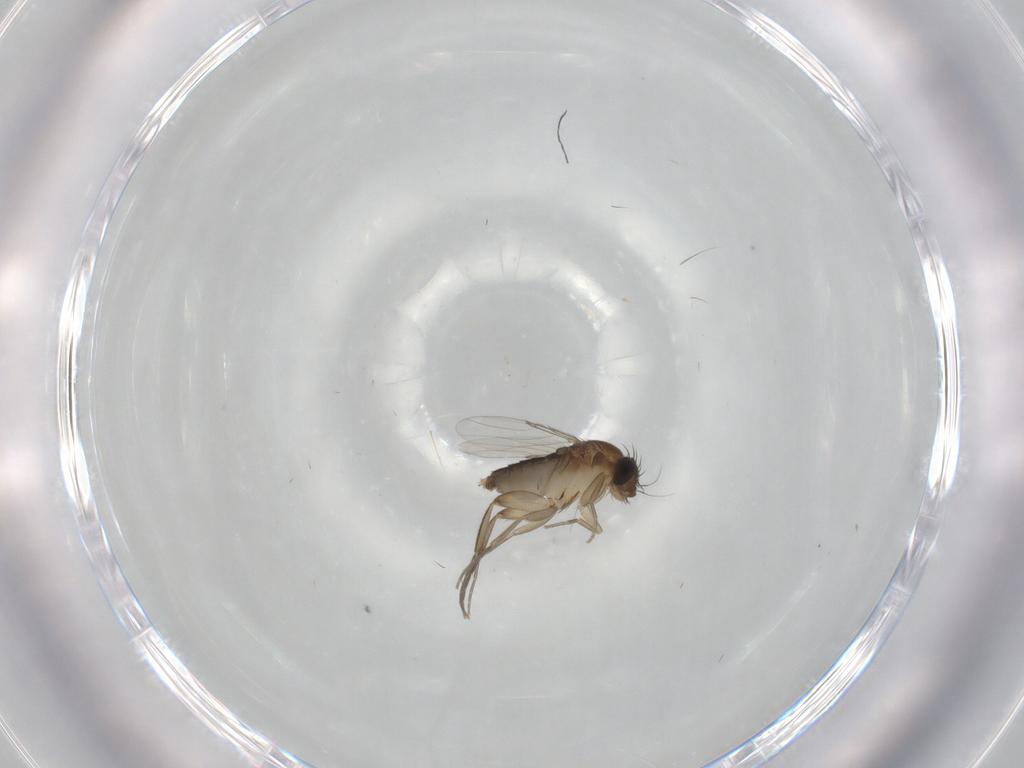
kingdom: Animalia
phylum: Arthropoda
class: Insecta
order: Diptera
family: Phoridae
